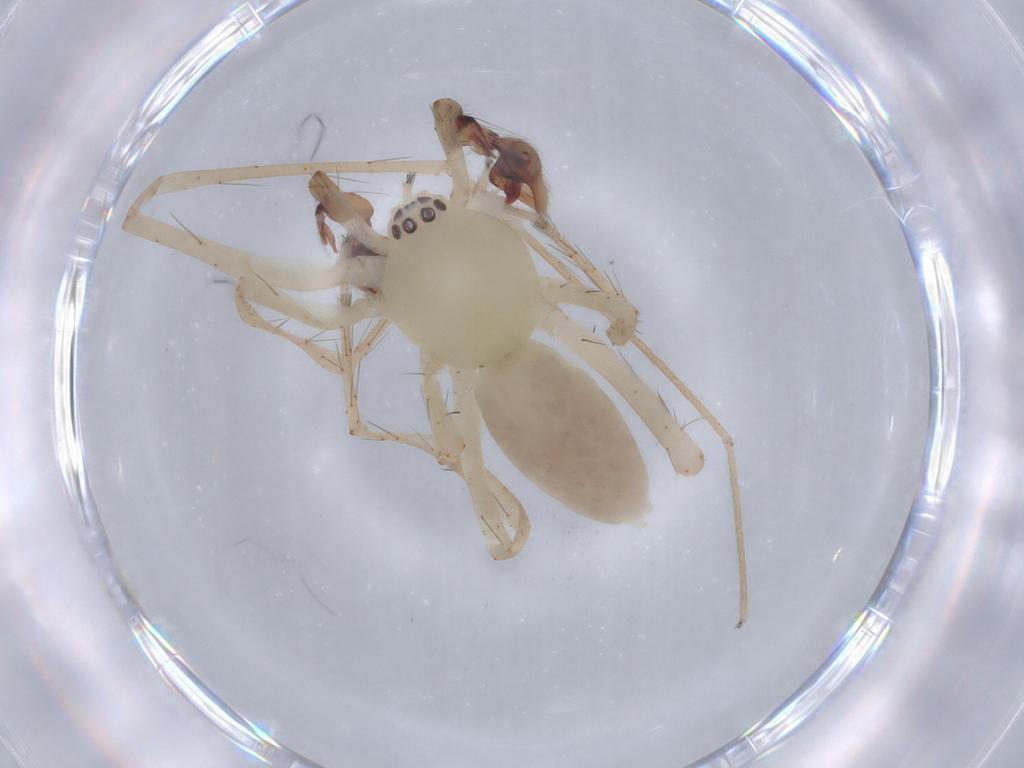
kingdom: Animalia
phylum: Arthropoda
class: Arachnida
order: Araneae
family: Anyphaenidae
